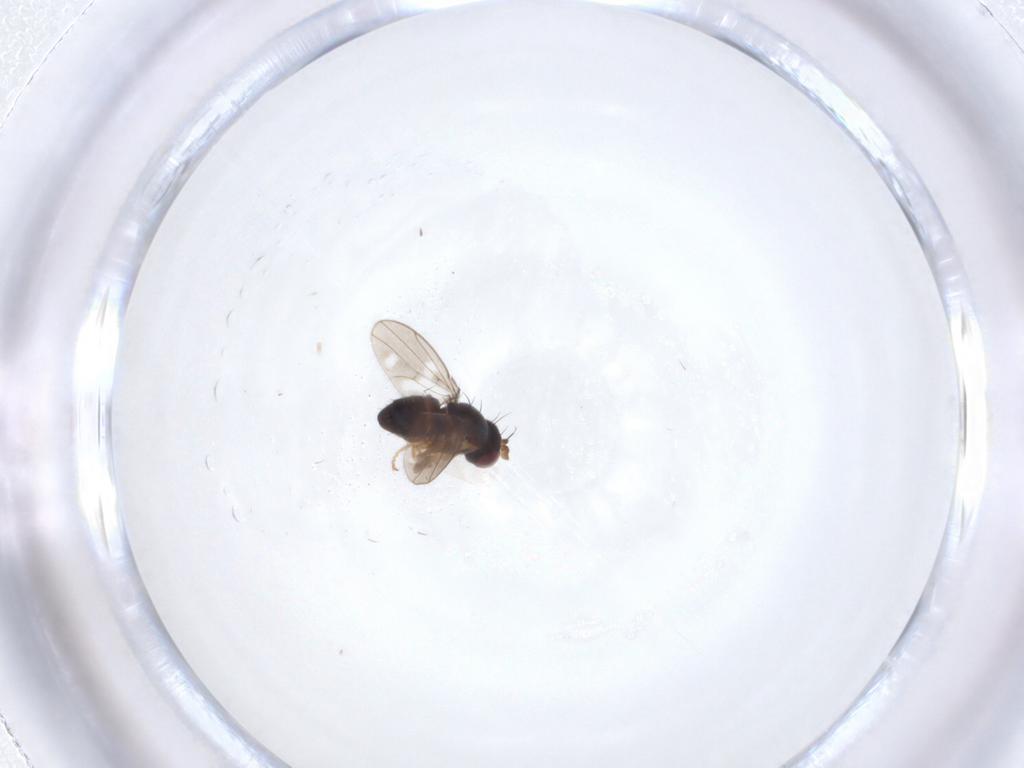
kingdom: Animalia
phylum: Arthropoda
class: Insecta
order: Diptera
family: Ephydridae
